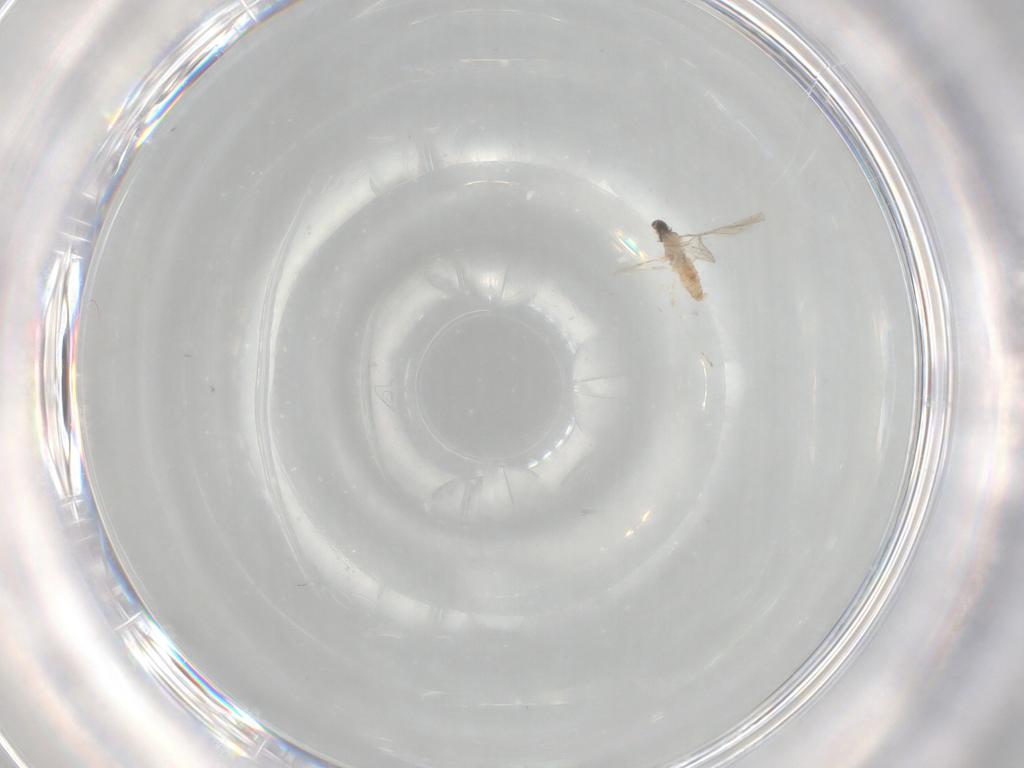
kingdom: Animalia
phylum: Arthropoda
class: Insecta
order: Diptera
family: Cecidomyiidae
